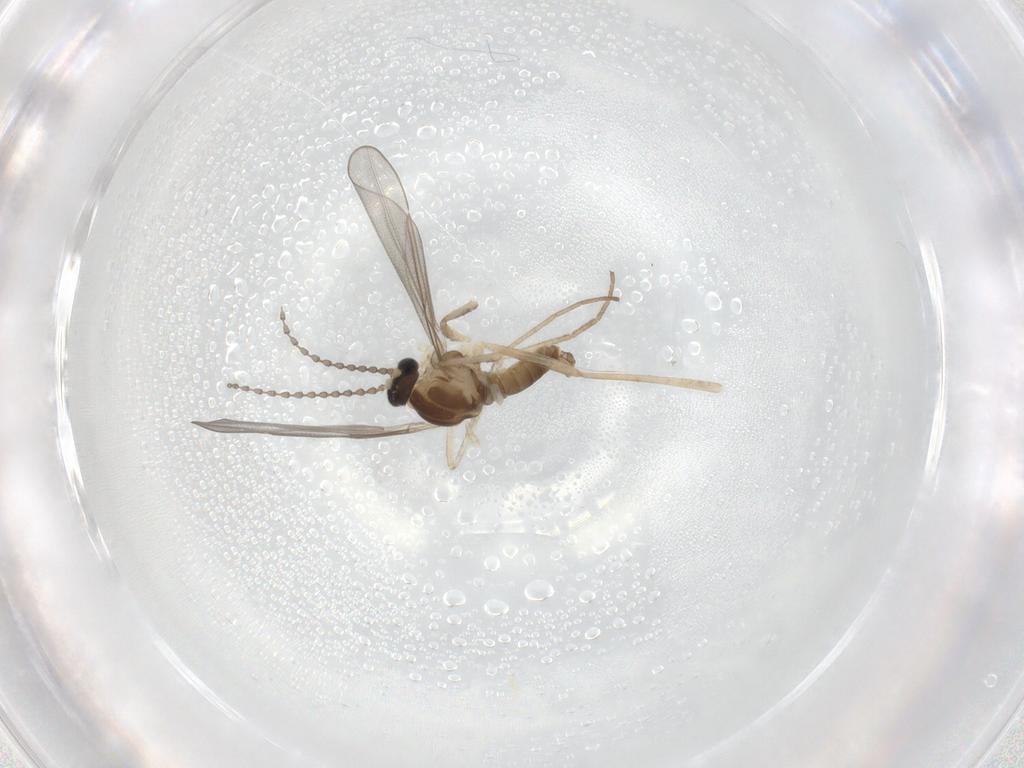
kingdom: Animalia
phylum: Arthropoda
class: Insecta
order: Diptera
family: Cecidomyiidae
